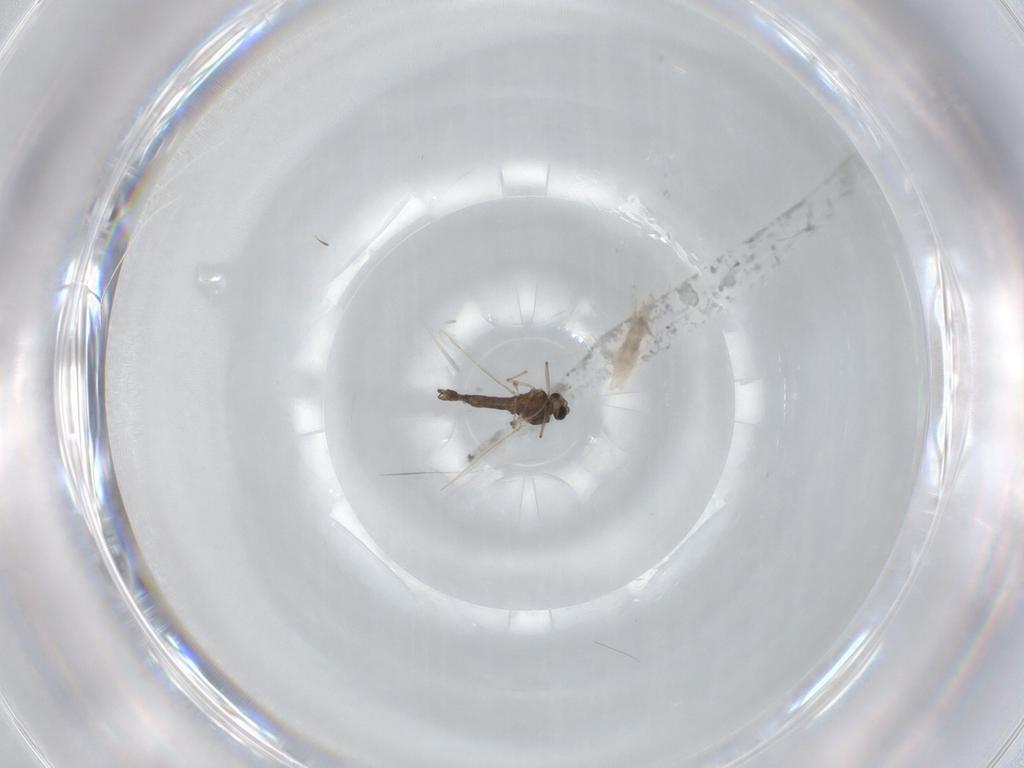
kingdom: Animalia
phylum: Arthropoda
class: Insecta
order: Diptera
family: Chironomidae
